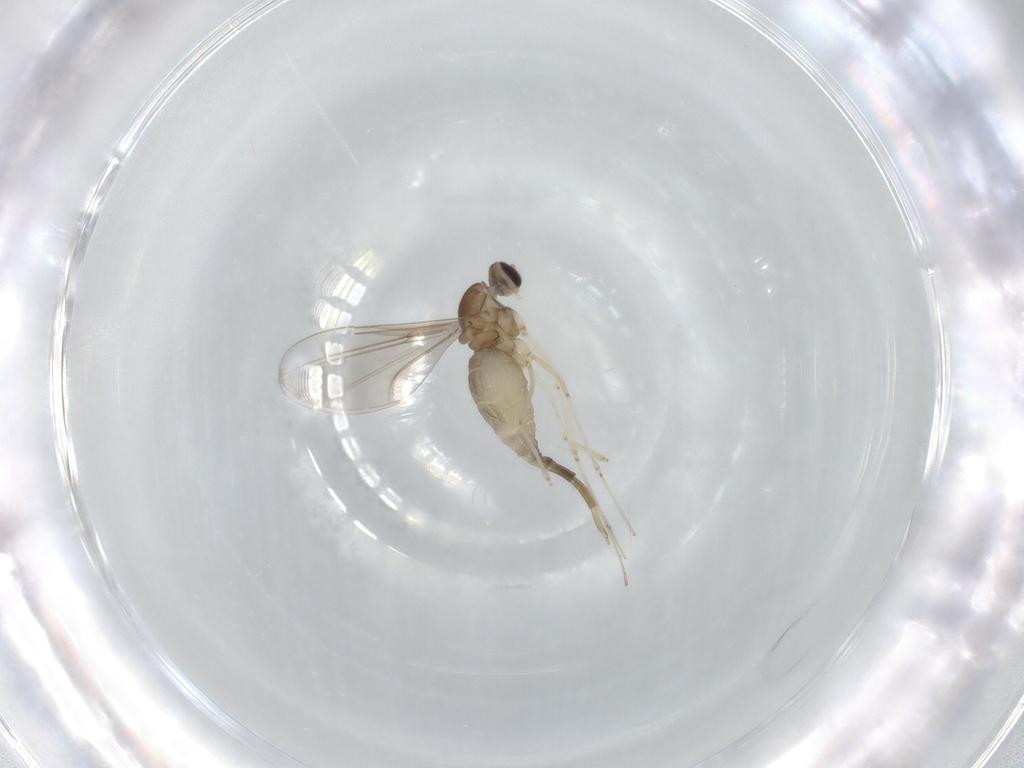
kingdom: Animalia
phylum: Arthropoda
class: Insecta
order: Diptera
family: Cecidomyiidae
